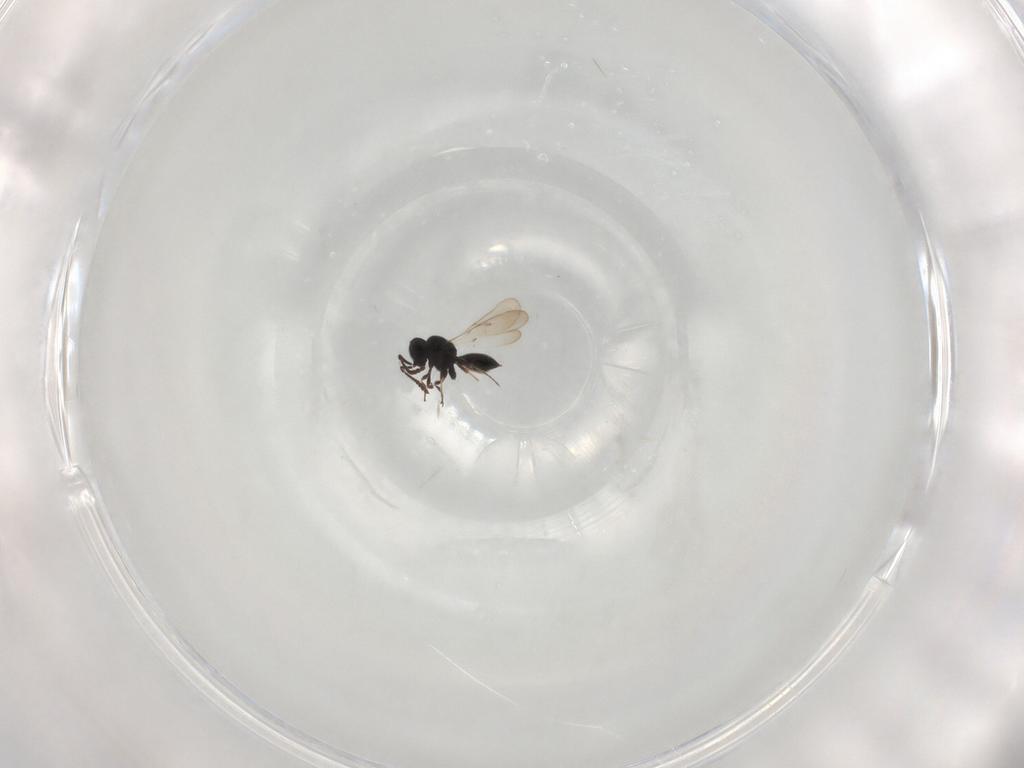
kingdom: Animalia
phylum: Arthropoda
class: Insecta
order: Hymenoptera
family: Scelionidae
